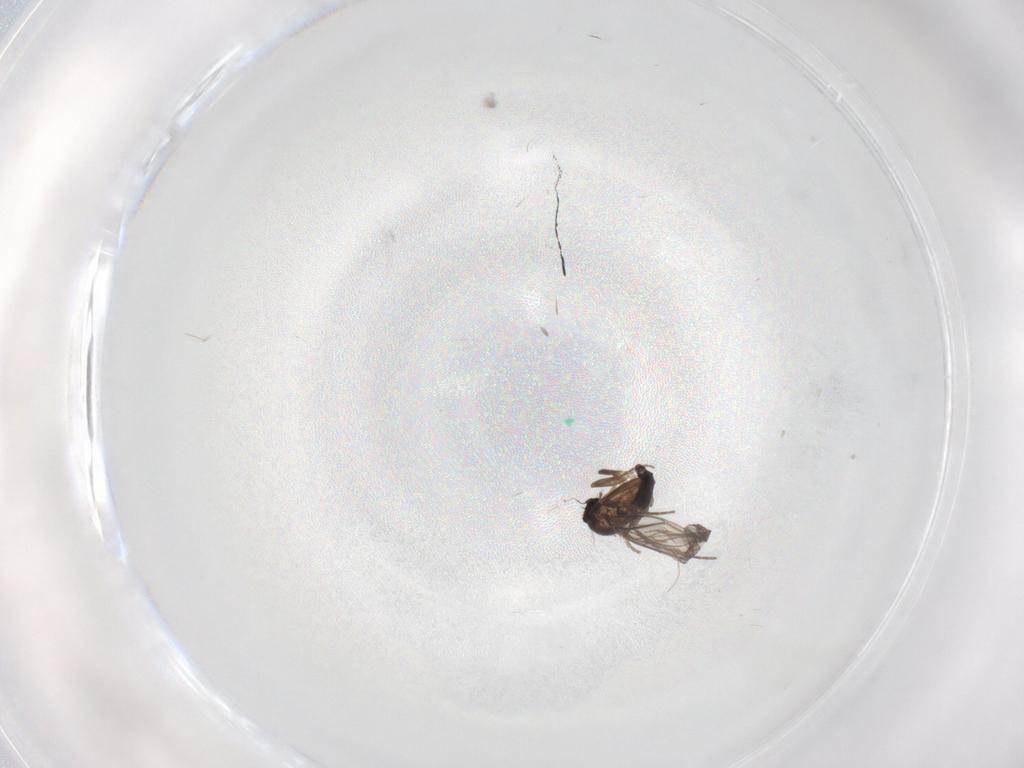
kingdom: Animalia
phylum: Arthropoda
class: Insecta
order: Diptera
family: Phoridae
